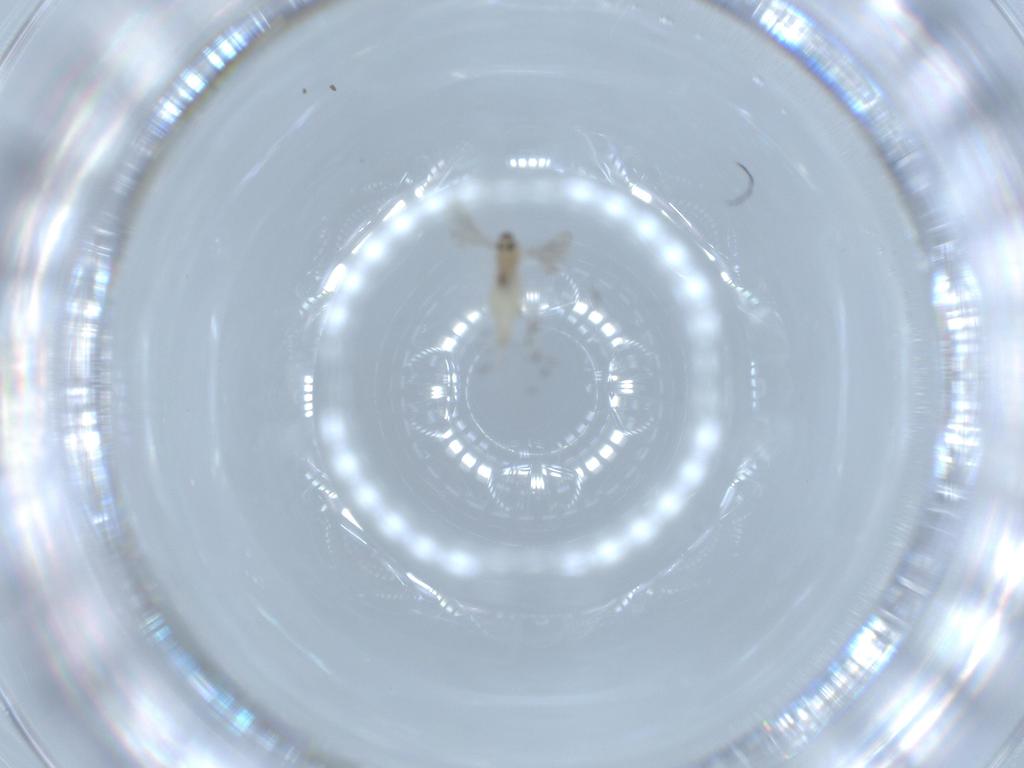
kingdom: Animalia
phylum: Arthropoda
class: Insecta
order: Diptera
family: Cecidomyiidae
